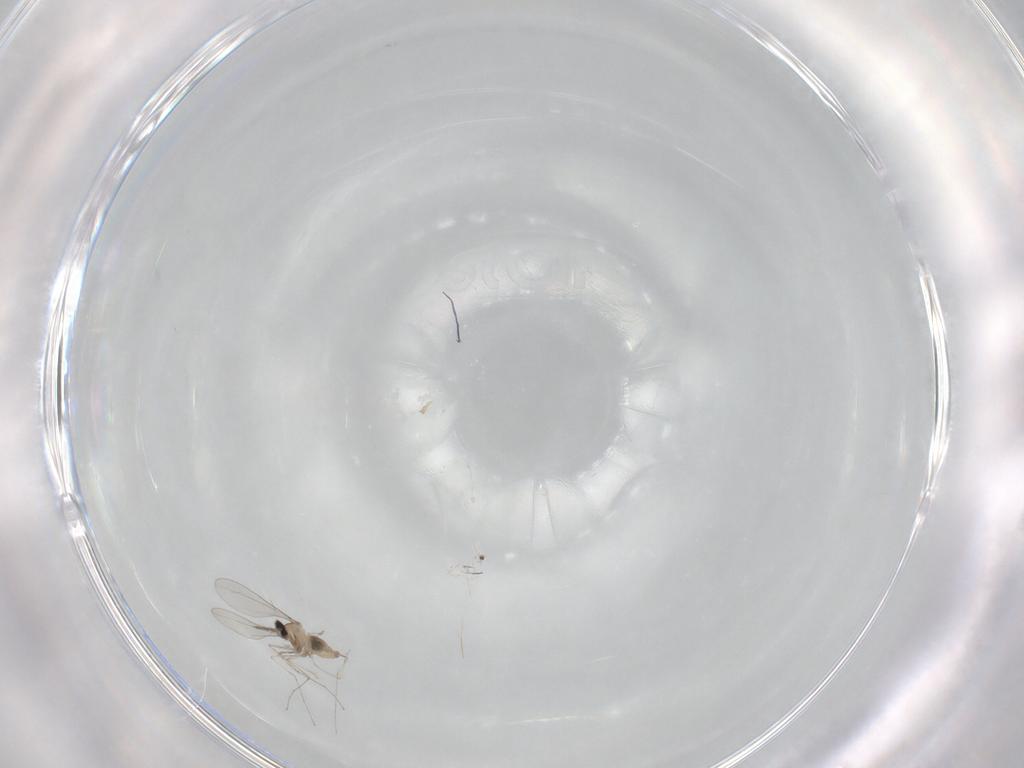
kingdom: Animalia
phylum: Arthropoda
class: Insecta
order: Diptera
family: Cecidomyiidae
